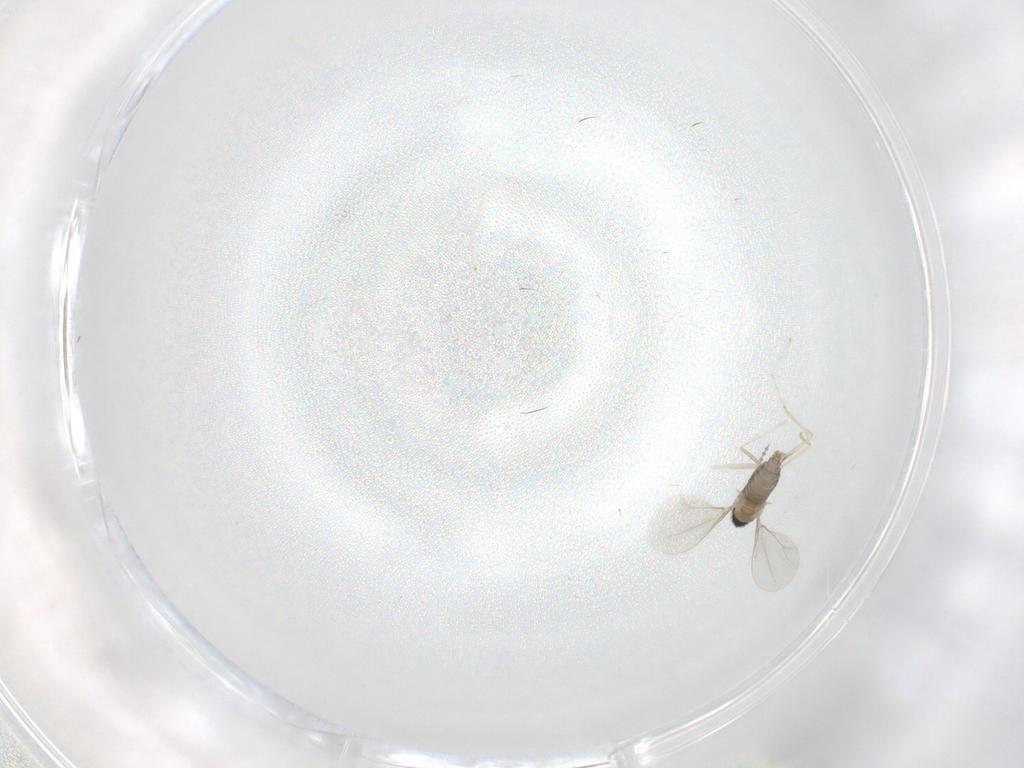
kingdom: Animalia
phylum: Arthropoda
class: Insecta
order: Diptera
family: Cecidomyiidae
